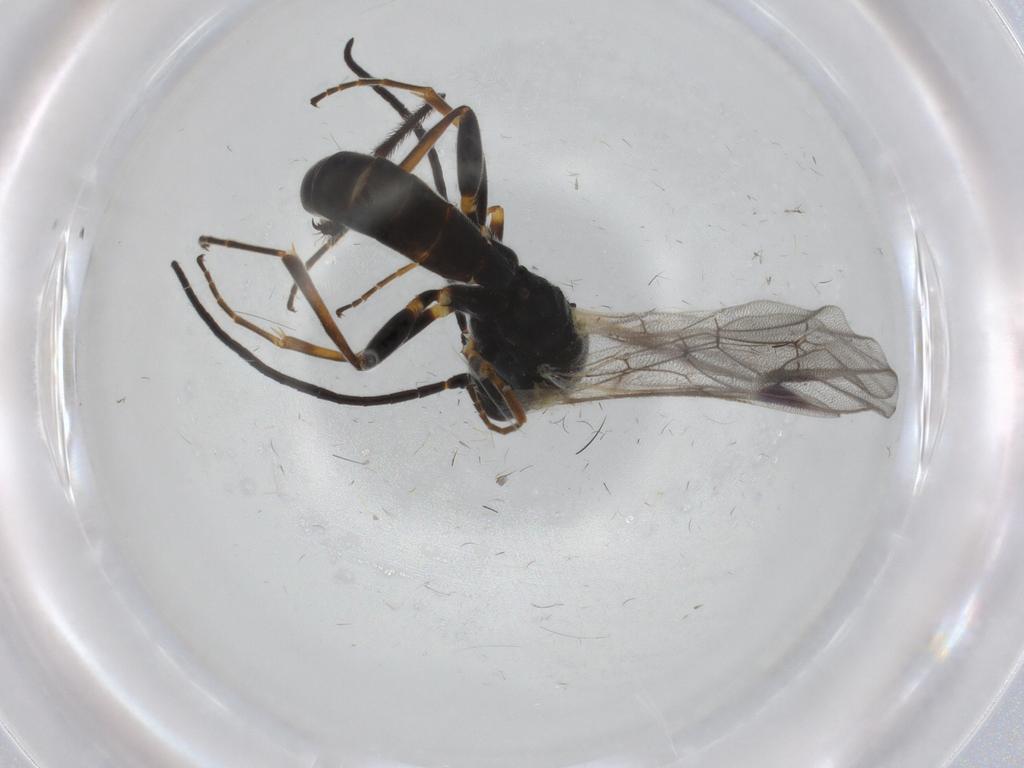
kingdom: Animalia
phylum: Arthropoda
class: Insecta
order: Hymenoptera
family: Ichneumonidae
